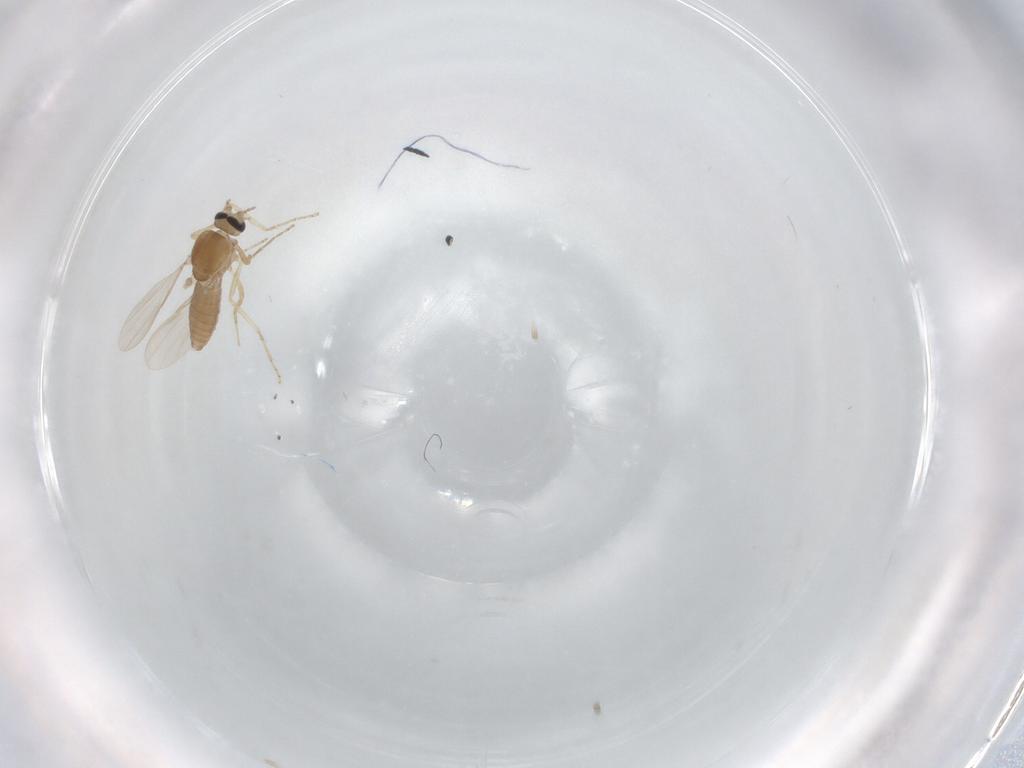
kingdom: Animalia
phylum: Arthropoda
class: Insecta
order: Diptera
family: Ceratopogonidae
